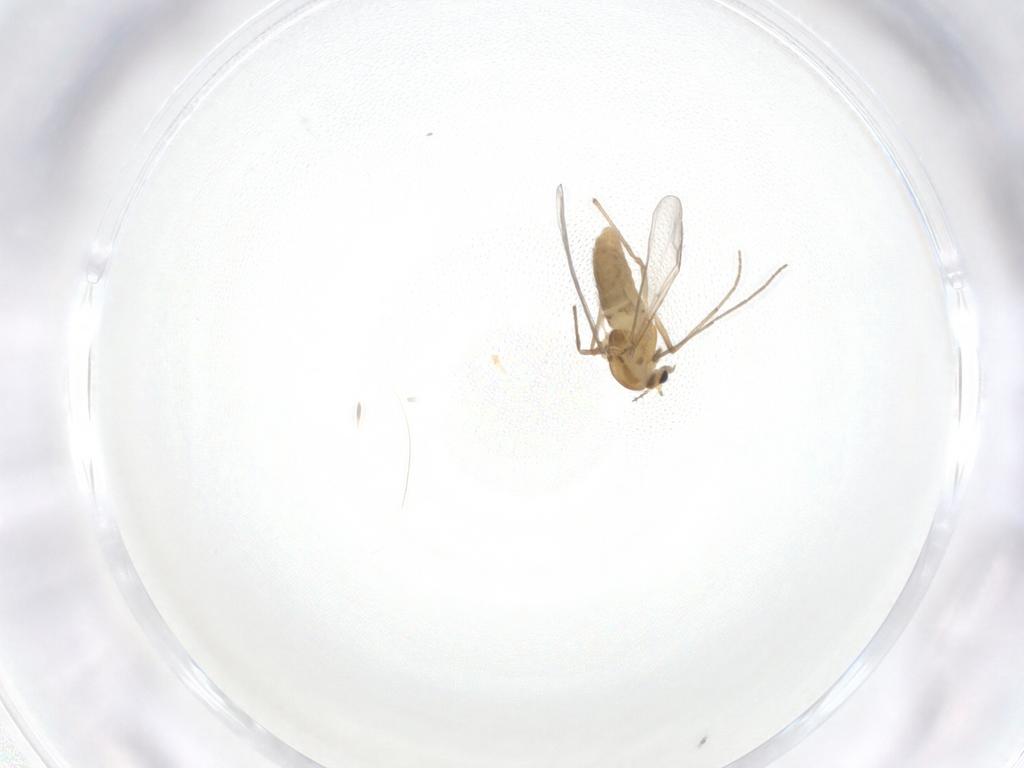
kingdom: Animalia
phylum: Arthropoda
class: Insecta
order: Diptera
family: Chironomidae
